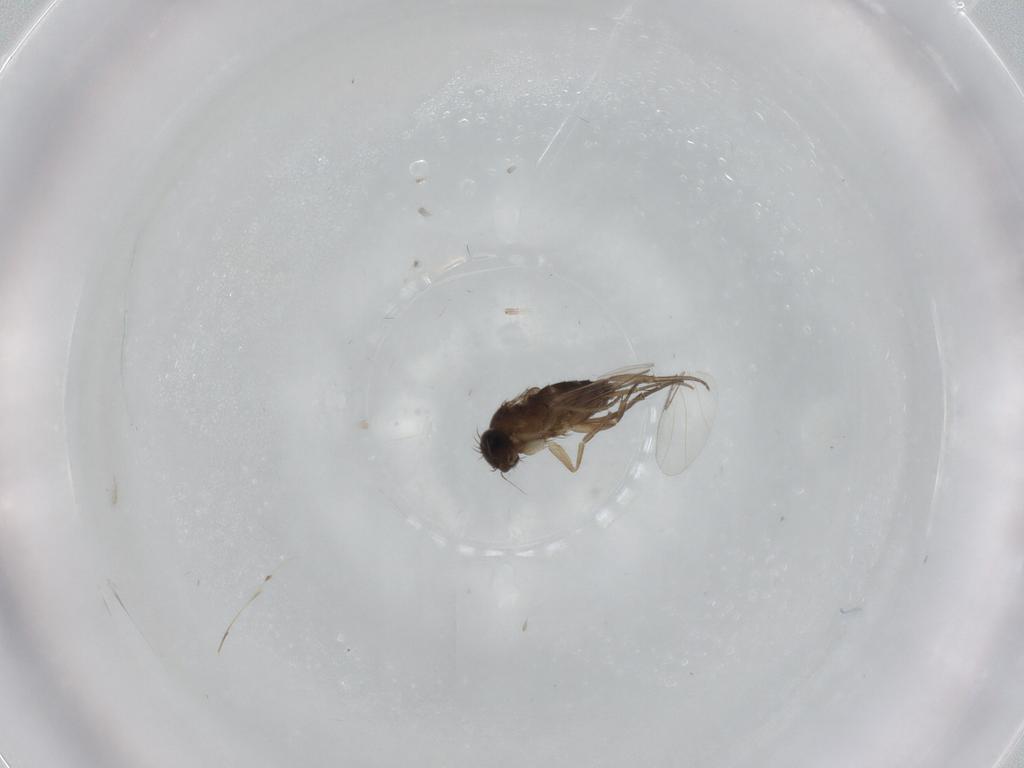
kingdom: Animalia
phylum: Arthropoda
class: Insecta
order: Diptera
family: Phoridae
